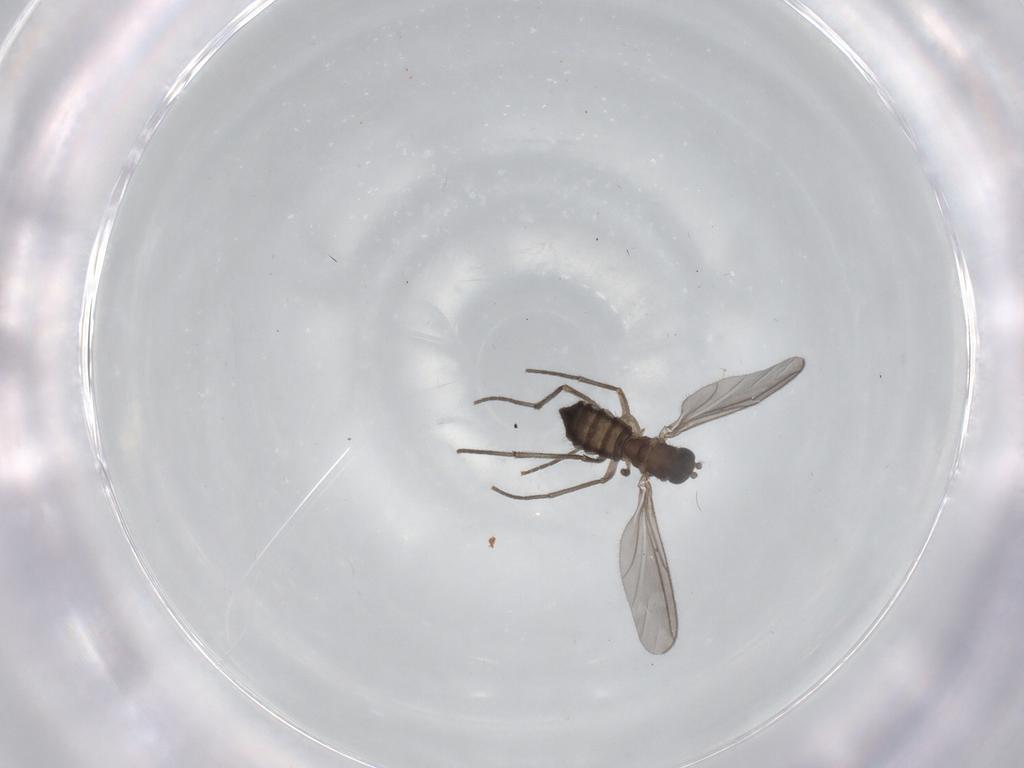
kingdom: Animalia
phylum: Arthropoda
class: Insecta
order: Diptera
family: Sciaridae
